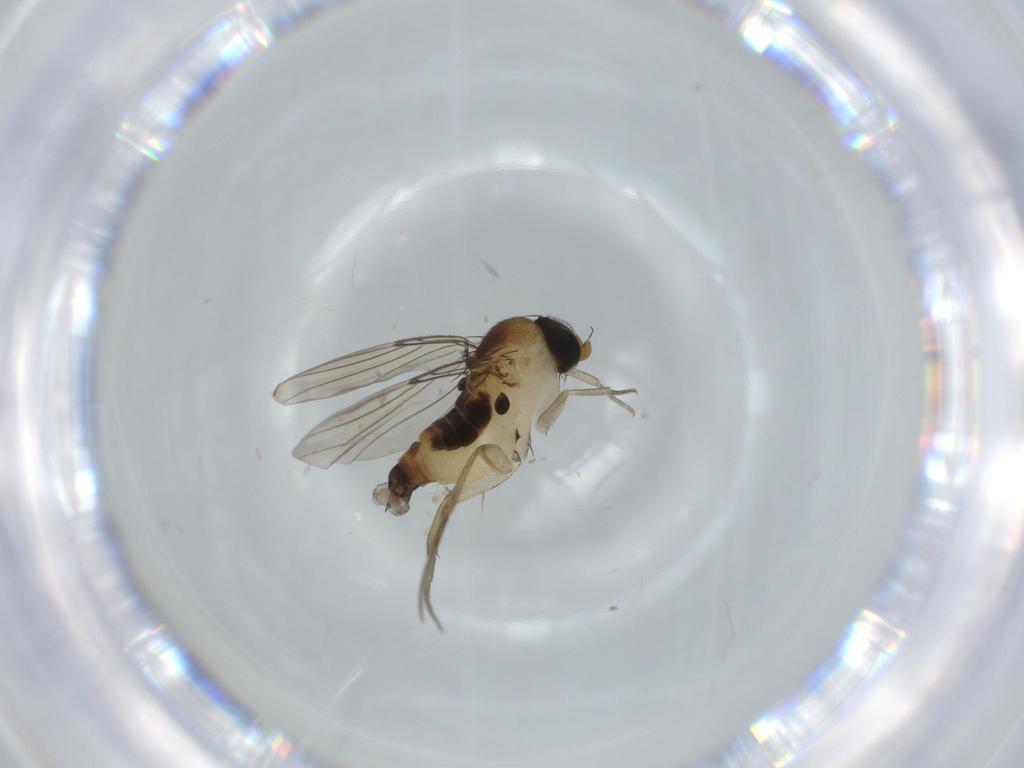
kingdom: Animalia
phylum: Arthropoda
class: Insecta
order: Diptera
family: Phoridae
